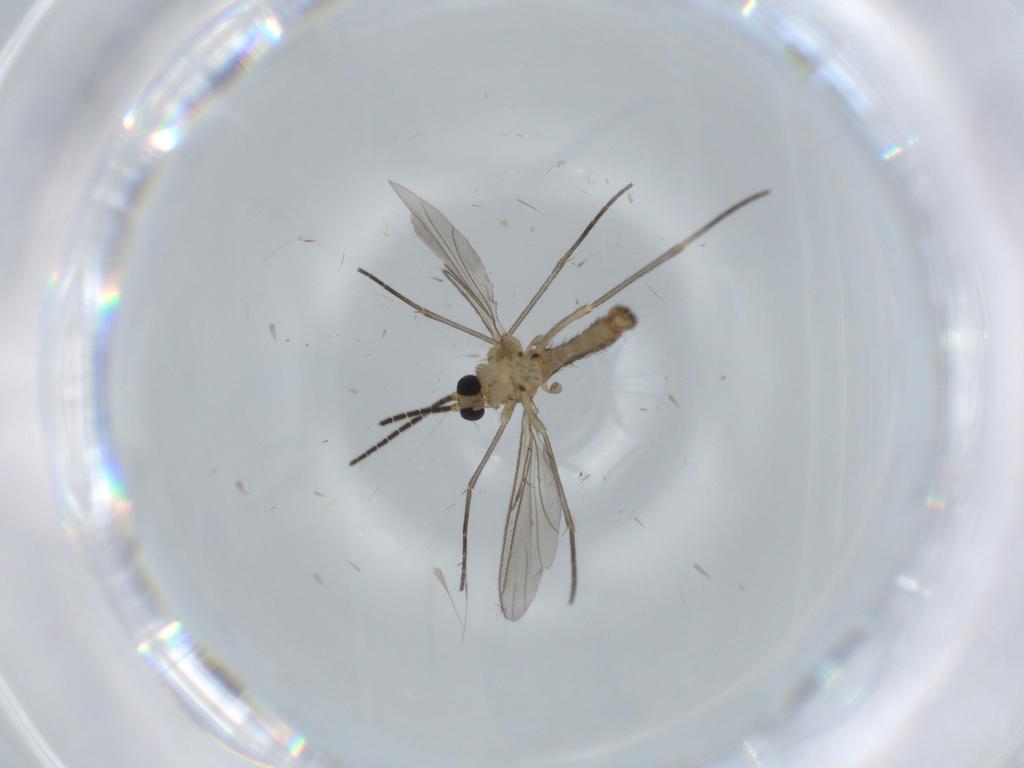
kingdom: Animalia
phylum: Arthropoda
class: Insecta
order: Diptera
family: Sciaridae
